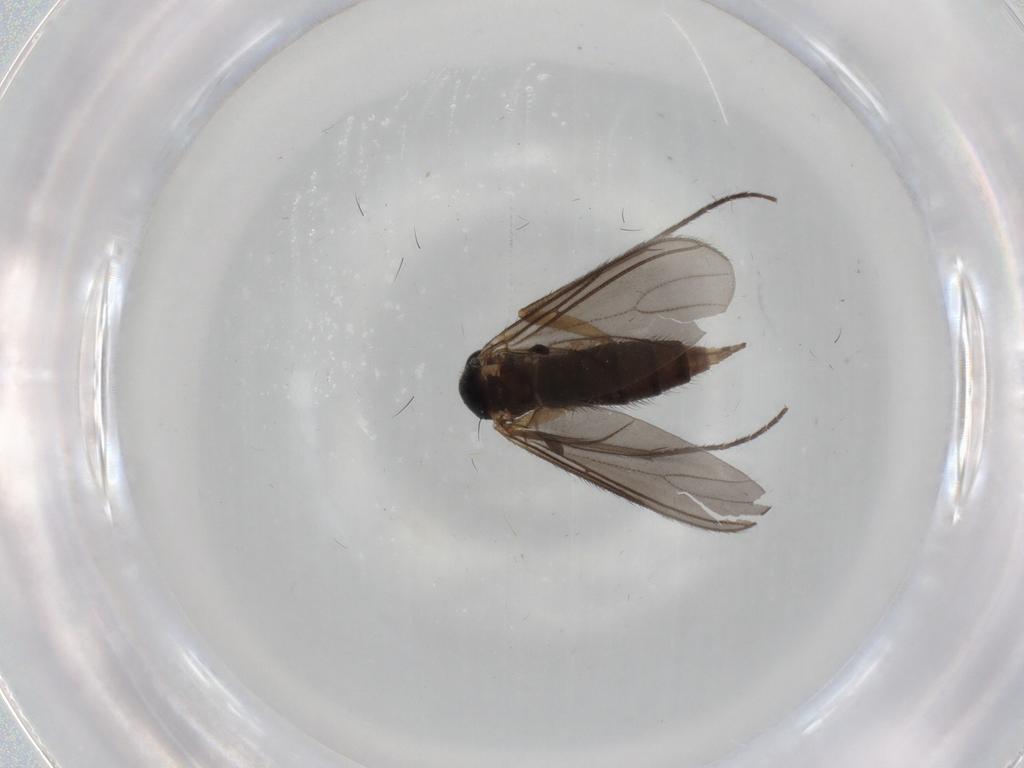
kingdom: Animalia
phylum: Arthropoda
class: Insecta
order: Diptera
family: Sciaridae
